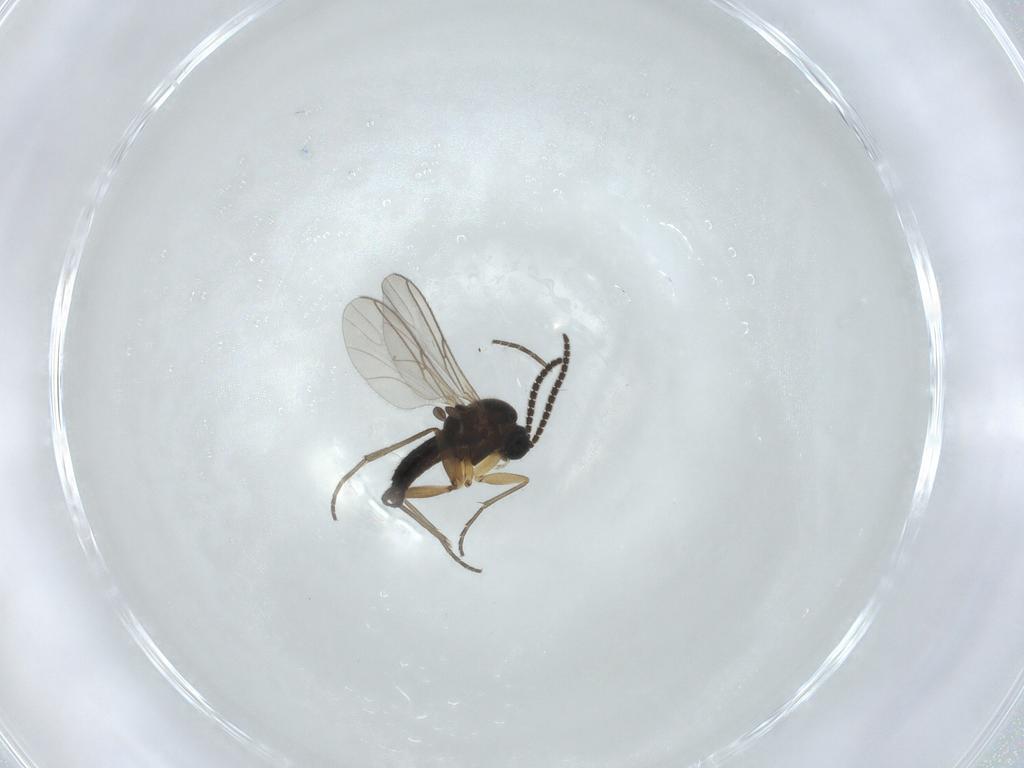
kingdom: Animalia
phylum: Arthropoda
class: Insecta
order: Diptera
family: Sciaridae
